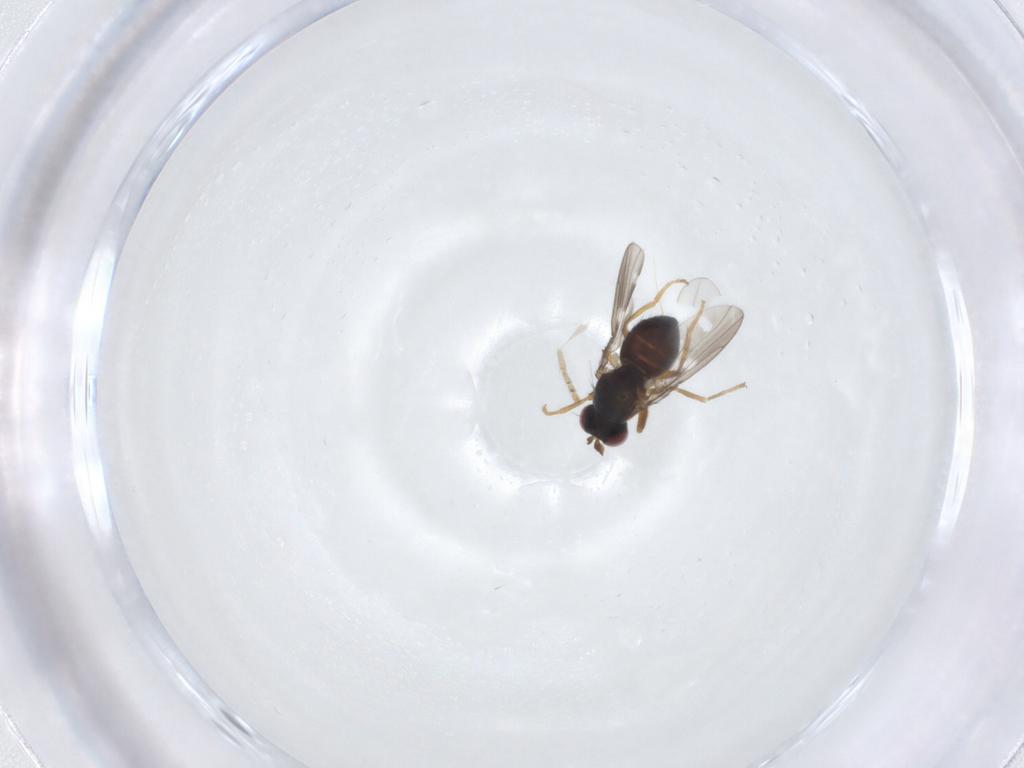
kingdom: Animalia
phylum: Arthropoda
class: Insecta
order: Diptera
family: Ephydridae
